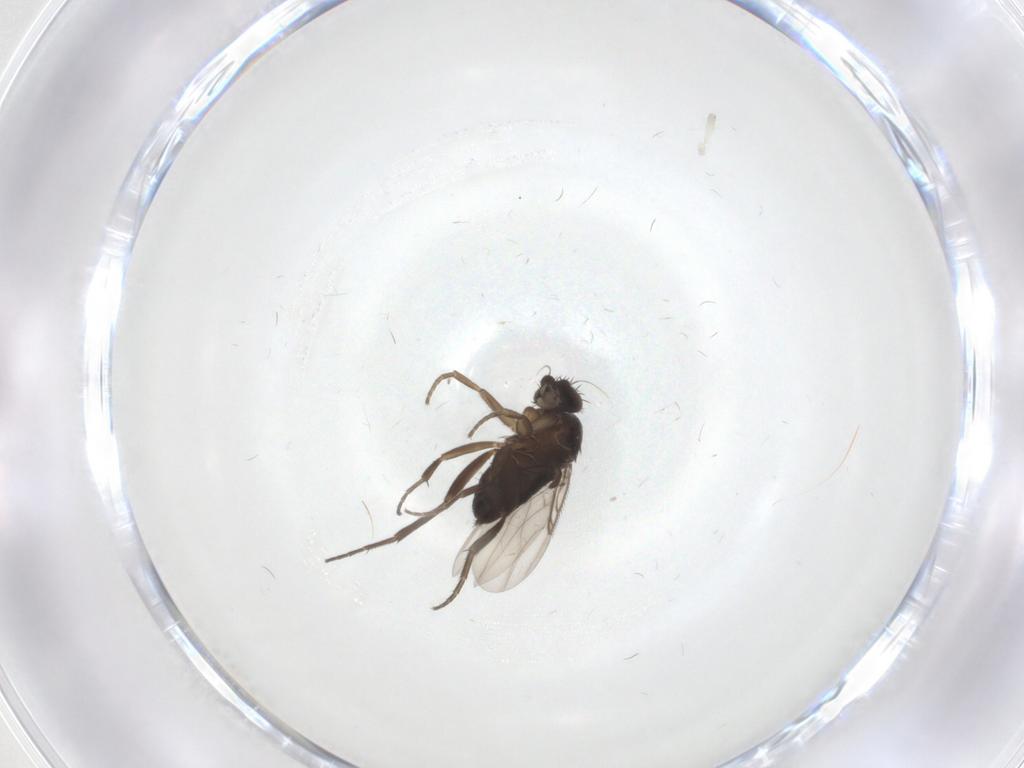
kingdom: Animalia
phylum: Arthropoda
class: Insecta
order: Diptera
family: Phoridae
